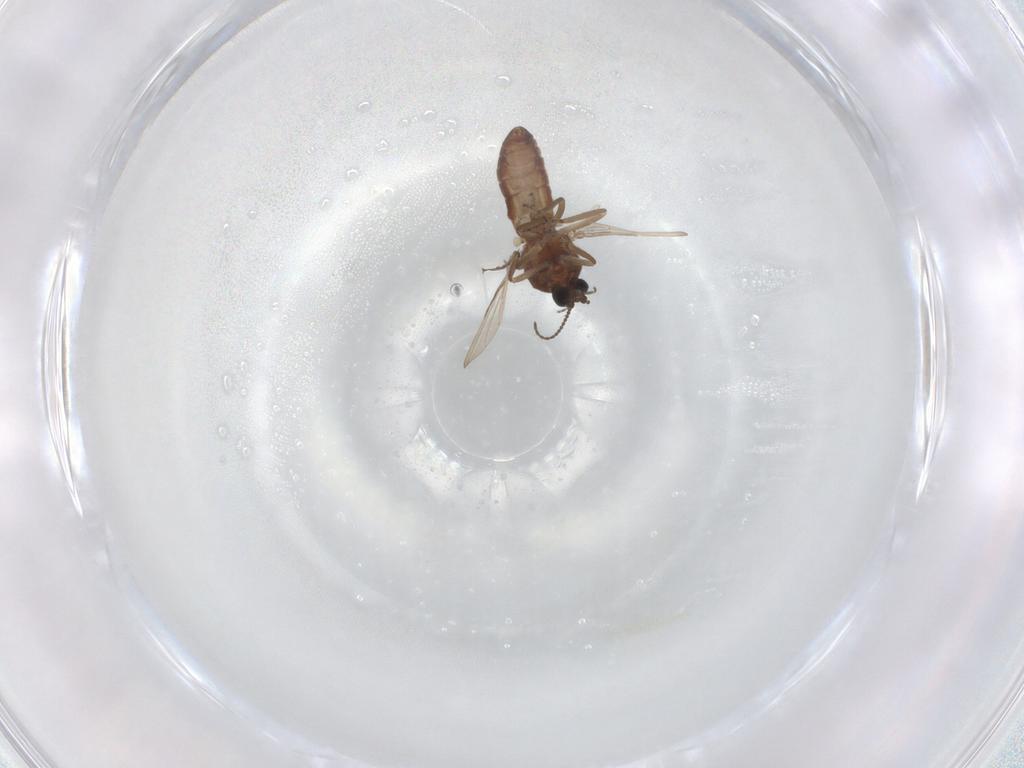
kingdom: Animalia
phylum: Arthropoda
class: Insecta
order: Diptera
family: Ceratopogonidae
